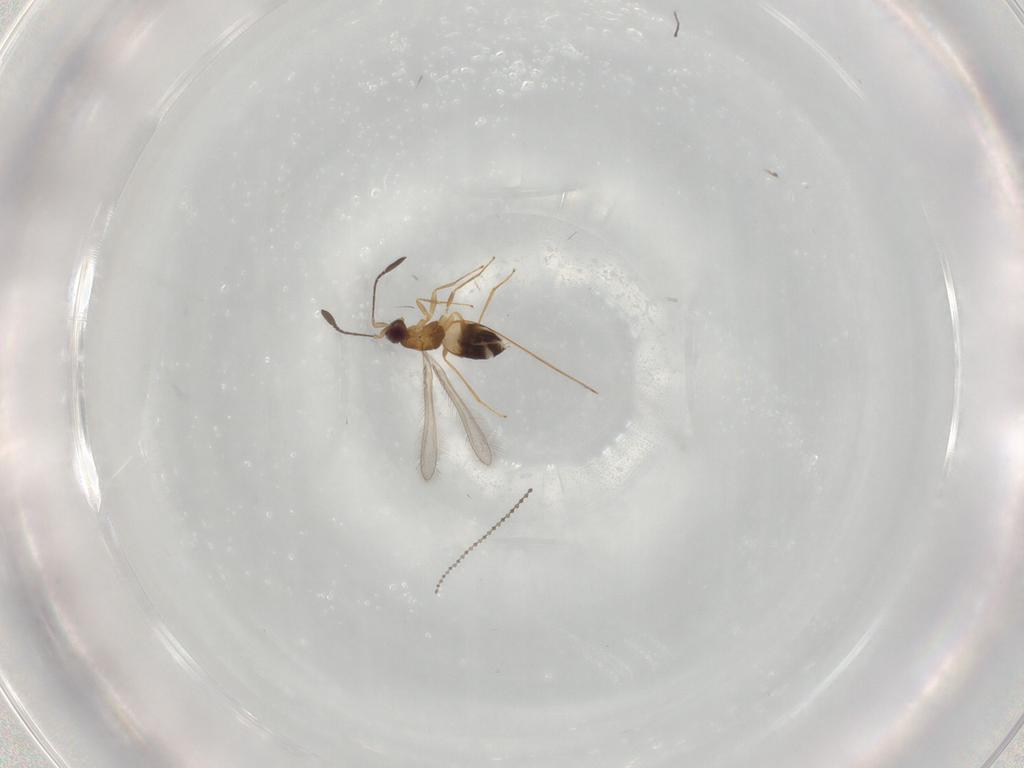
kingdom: Animalia
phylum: Arthropoda
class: Insecta
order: Hymenoptera
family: Mymaridae
